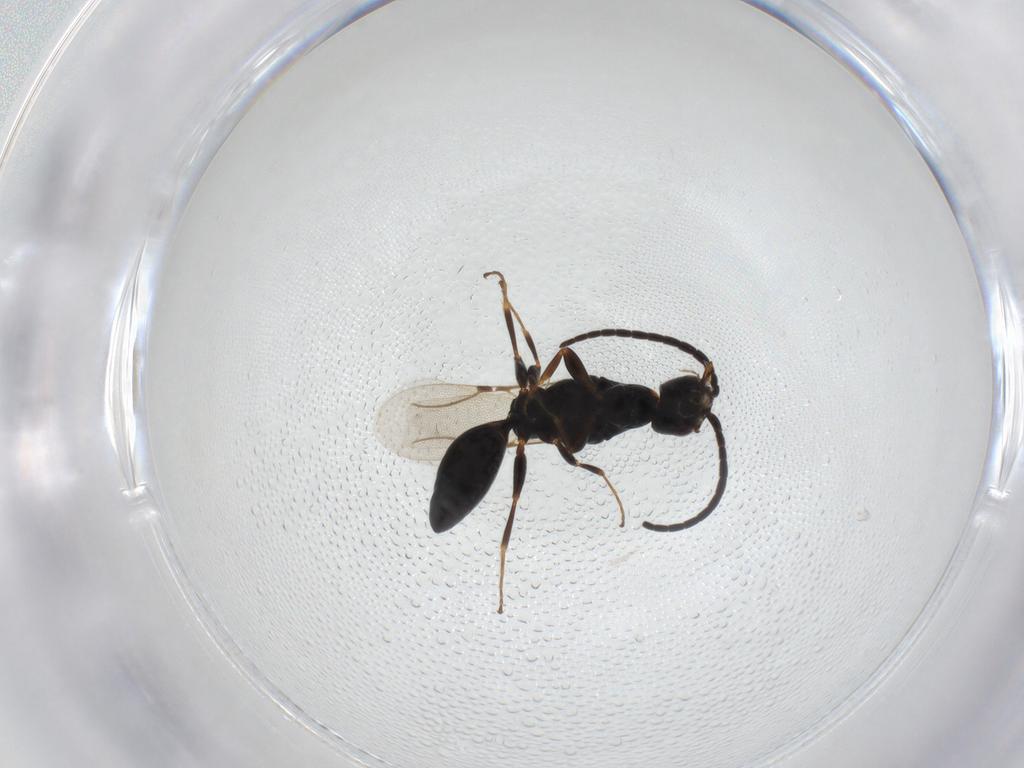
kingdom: Animalia
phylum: Arthropoda
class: Insecta
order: Hymenoptera
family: Bethylidae
